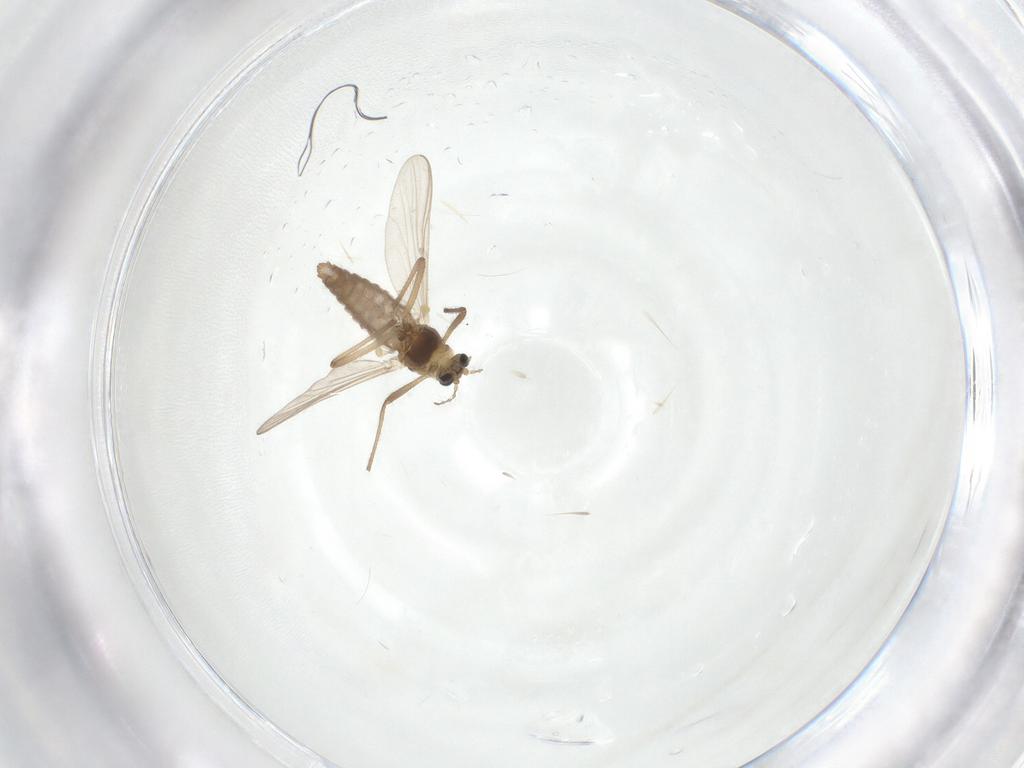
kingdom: Animalia
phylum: Arthropoda
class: Insecta
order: Diptera
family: Chironomidae
